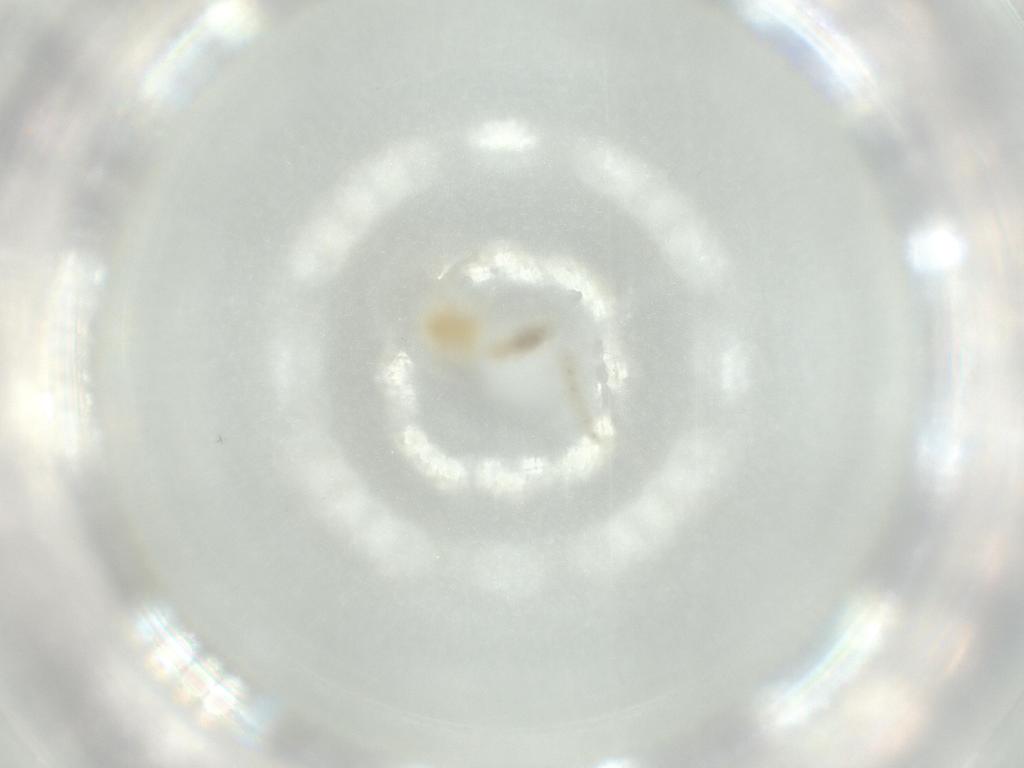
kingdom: Animalia
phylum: Arthropoda
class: Insecta
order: Psocodea
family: Caeciliusidae
